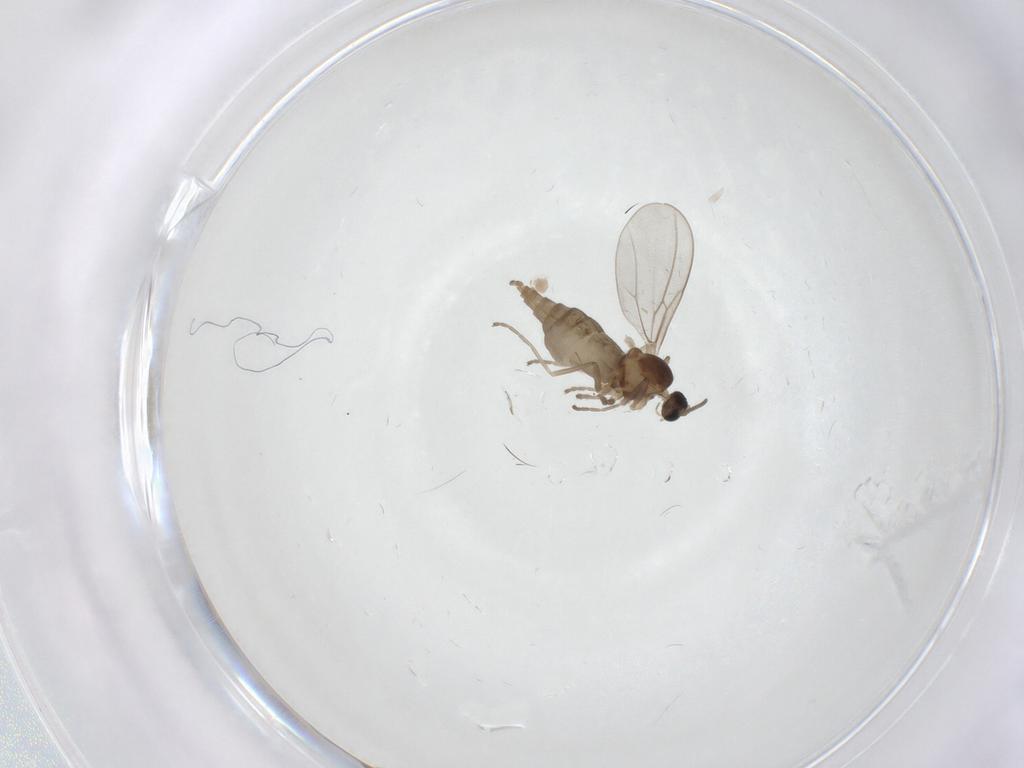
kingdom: Animalia
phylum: Arthropoda
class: Insecta
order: Diptera
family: Cecidomyiidae
